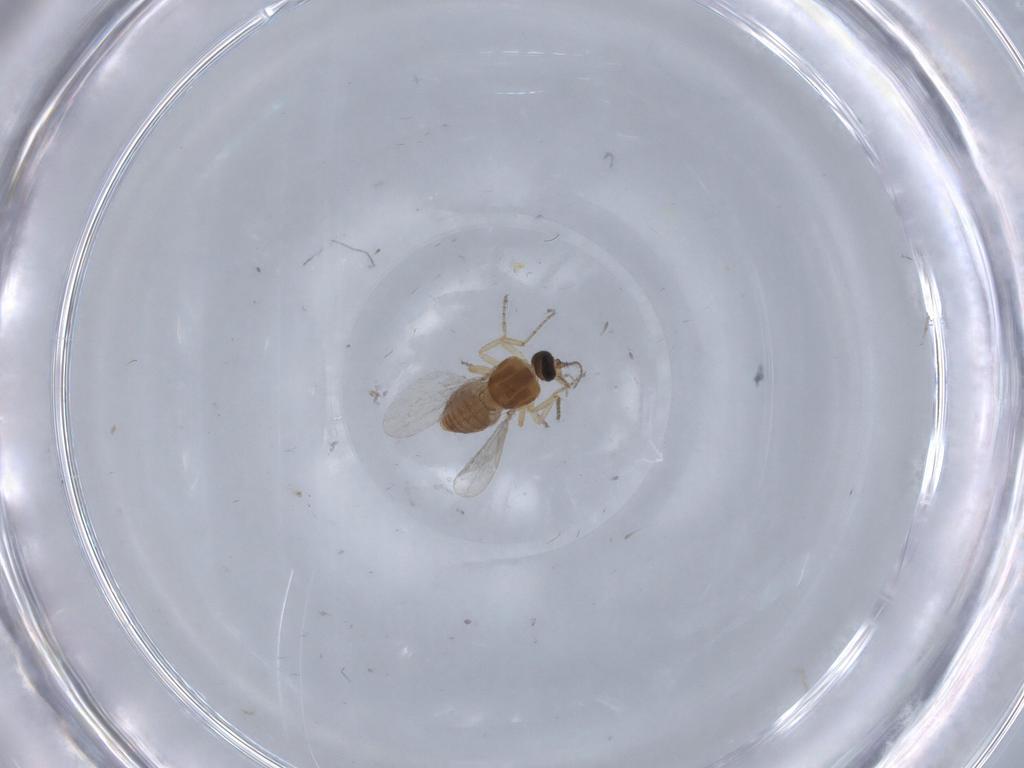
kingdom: Animalia
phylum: Arthropoda
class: Insecta
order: Diptera
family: Ceratopogonidae
